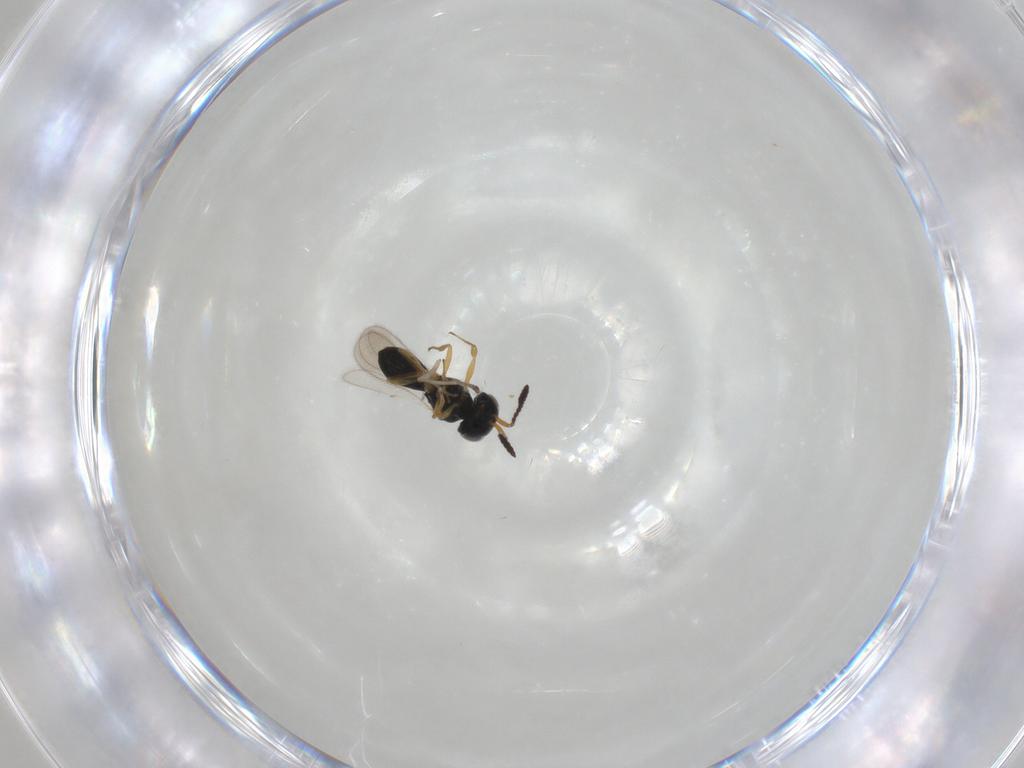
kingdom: Animalia
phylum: Arthropoda
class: Insecta
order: Hymenoptera
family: Scelionidae
